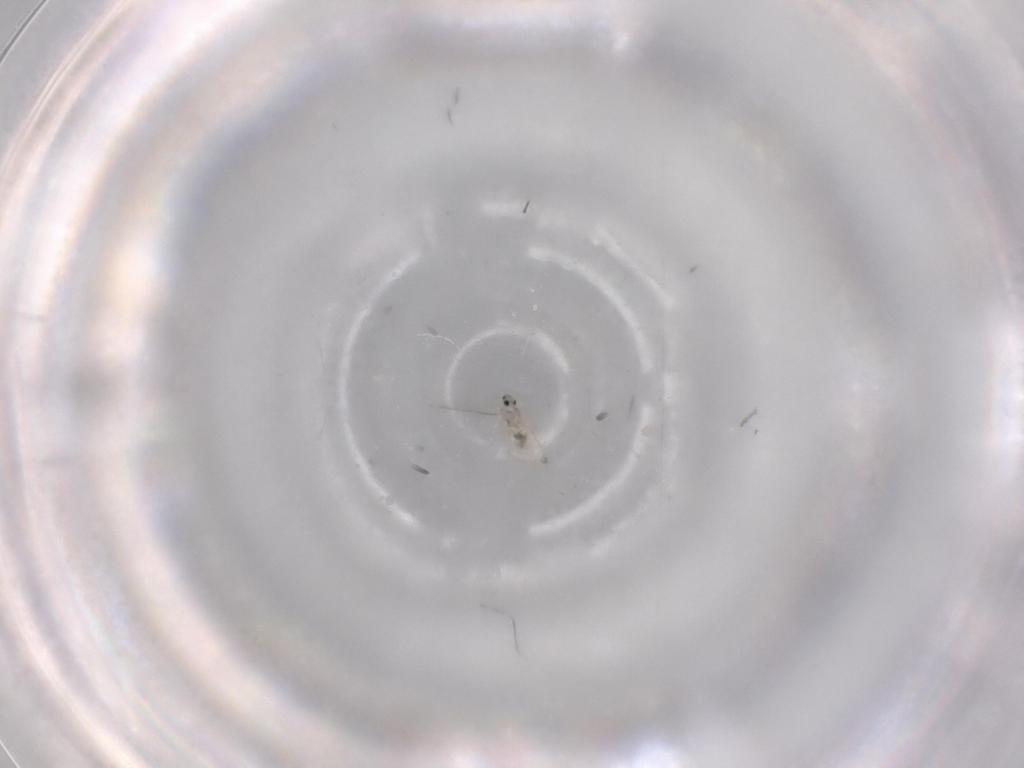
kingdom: Animalia
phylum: Arthropoda
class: Insecta
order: Diptera
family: Cecidomyiidae
